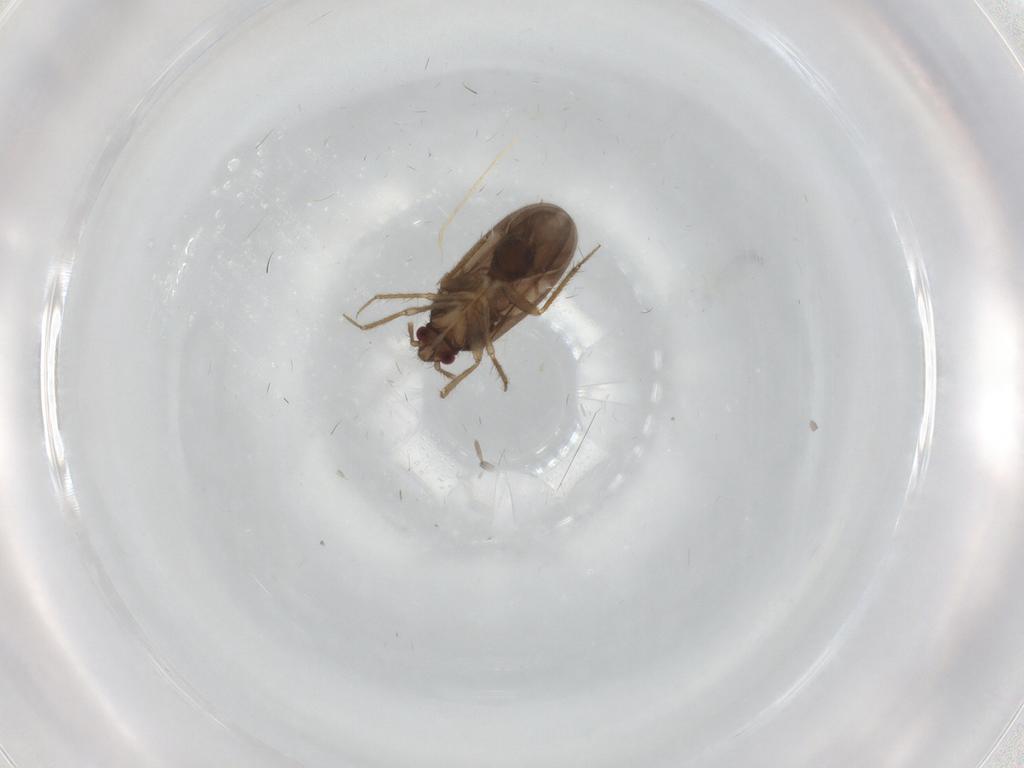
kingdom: Animalia
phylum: Arthropoda
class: Insecta
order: Hemiptera
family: Ceratocombidae
